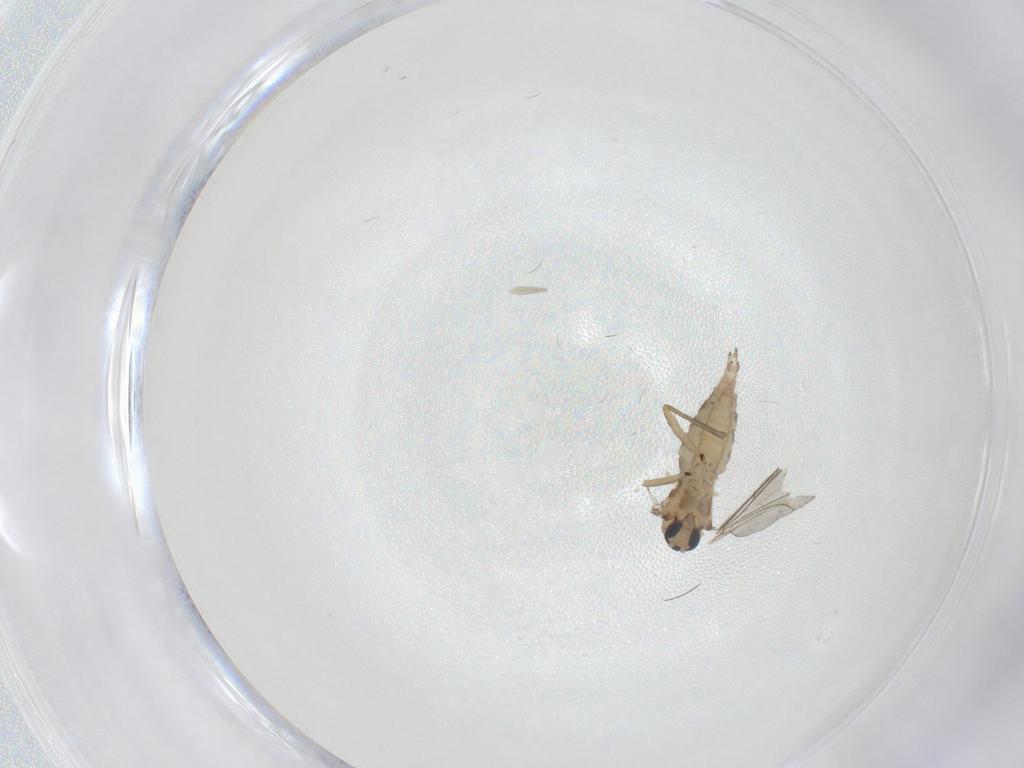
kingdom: Animalia
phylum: Arthropoda
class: Insecta
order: Diptera
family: Sciaridae
